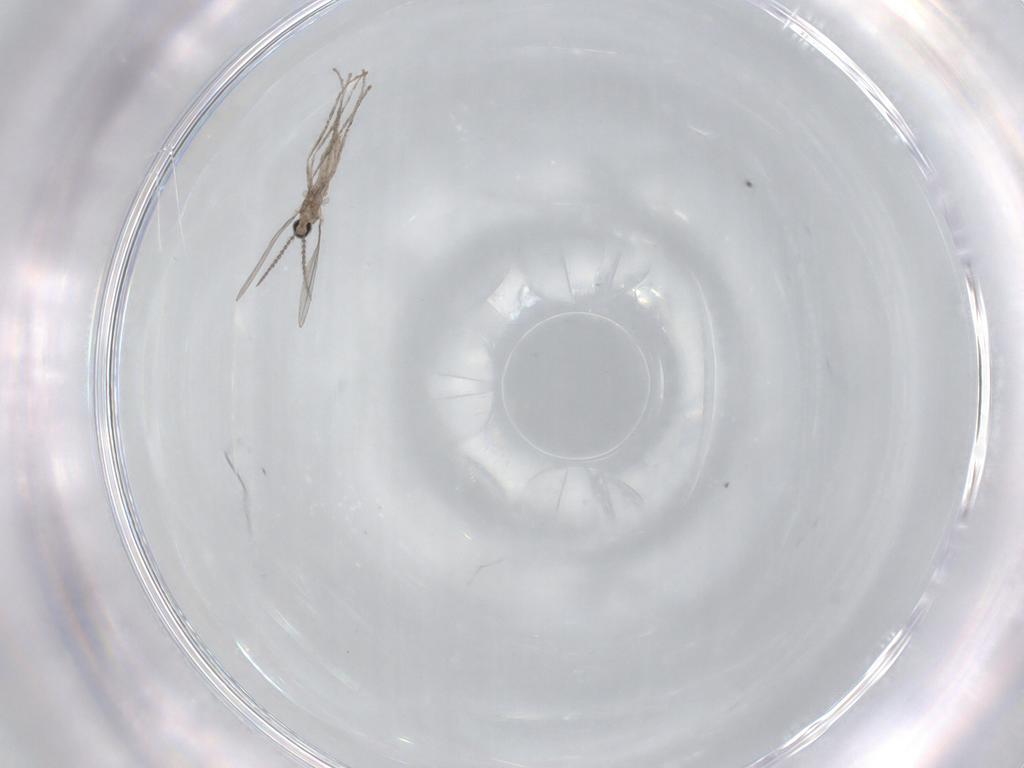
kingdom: Animalia
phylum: Arthropoda
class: Insecta
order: Diptera
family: Cecidomyiidae
